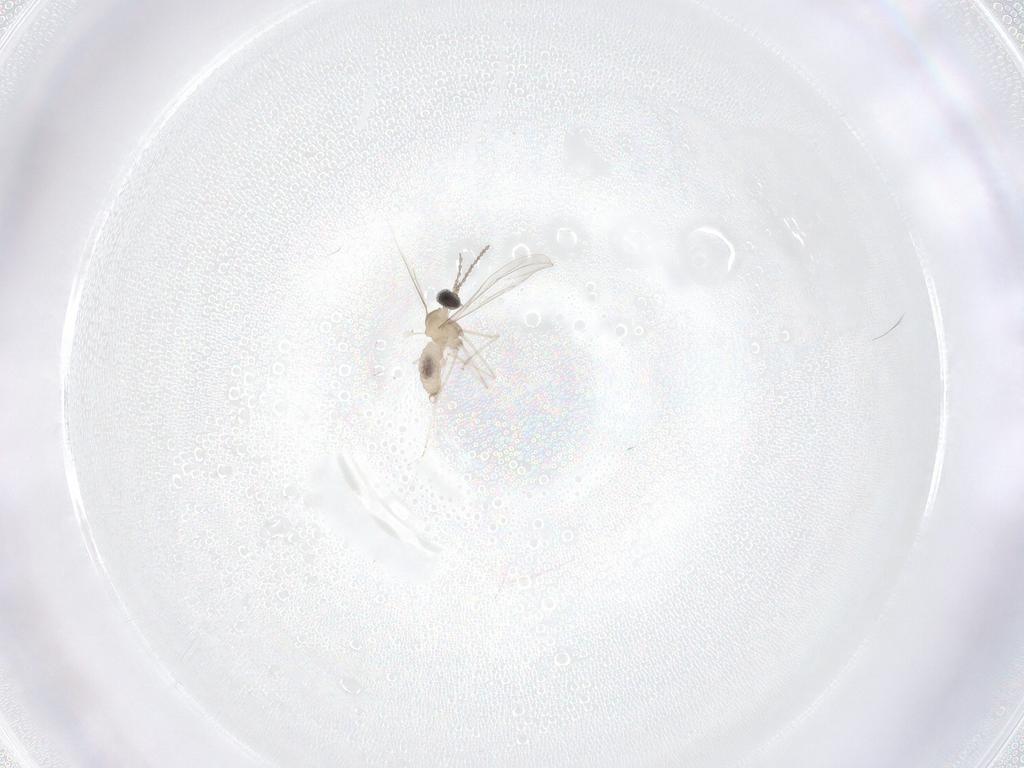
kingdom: Animalia
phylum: Arthropoda
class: Insecta
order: Diptera
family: Cecidomyiidae
